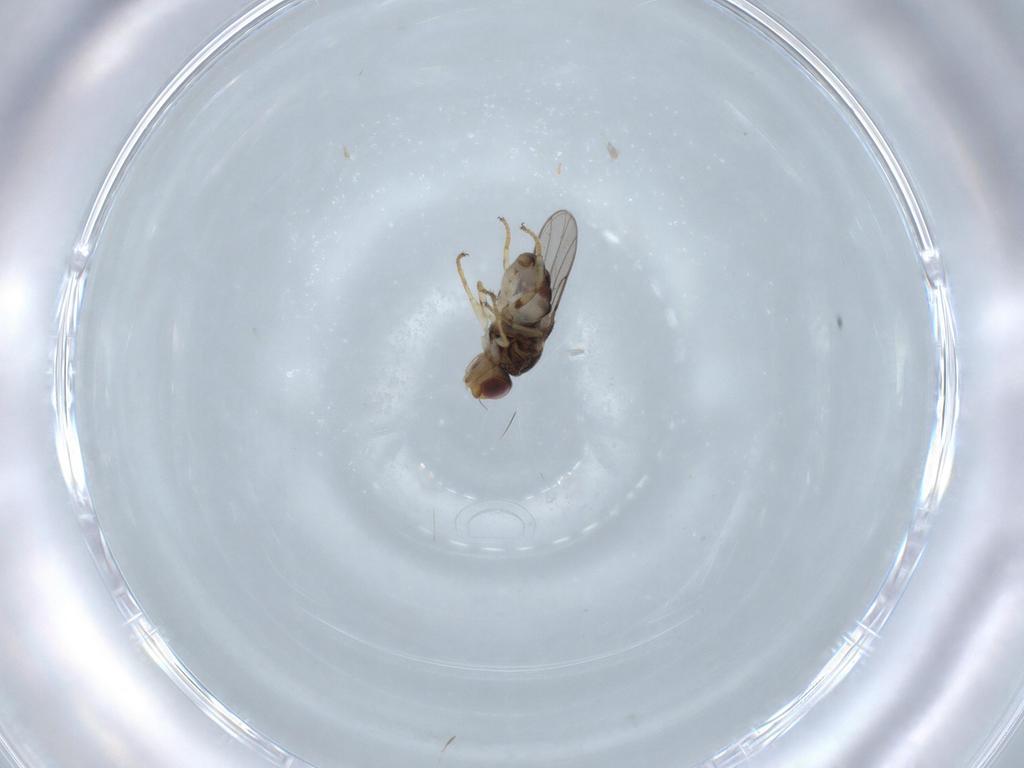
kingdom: Animalia
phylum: Arthropoda
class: Insecta
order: Diptera
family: Chloropidae
